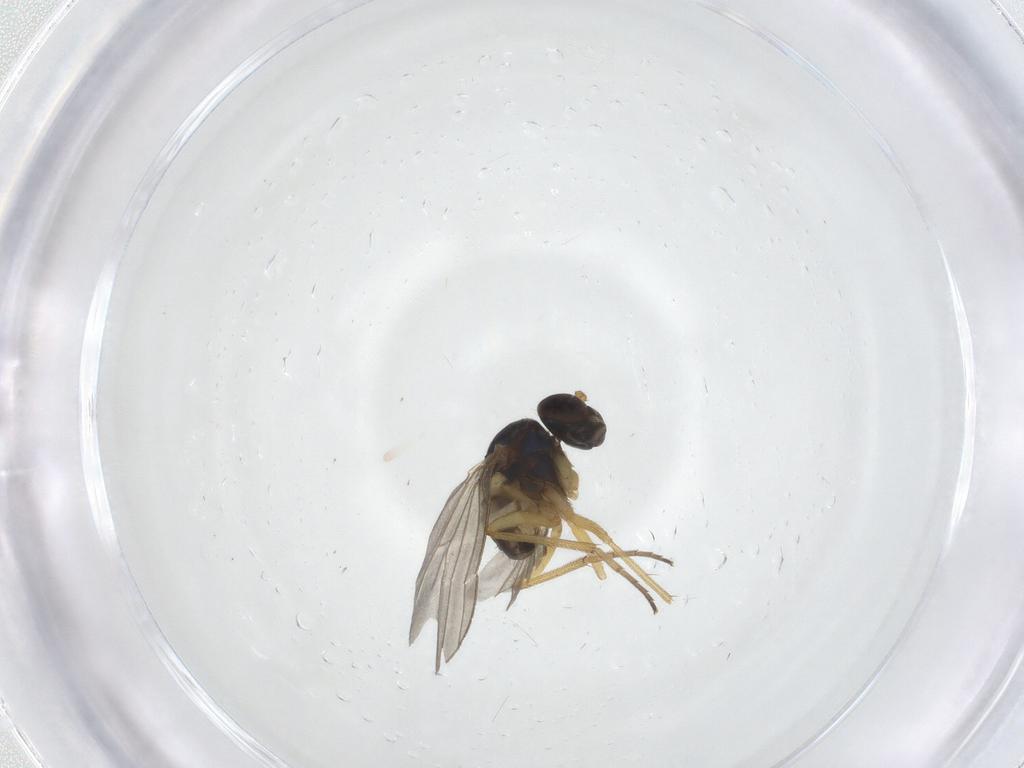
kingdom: Animalia
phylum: Arthropoda
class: Insecta
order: Diptera
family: Dolichopodidae
